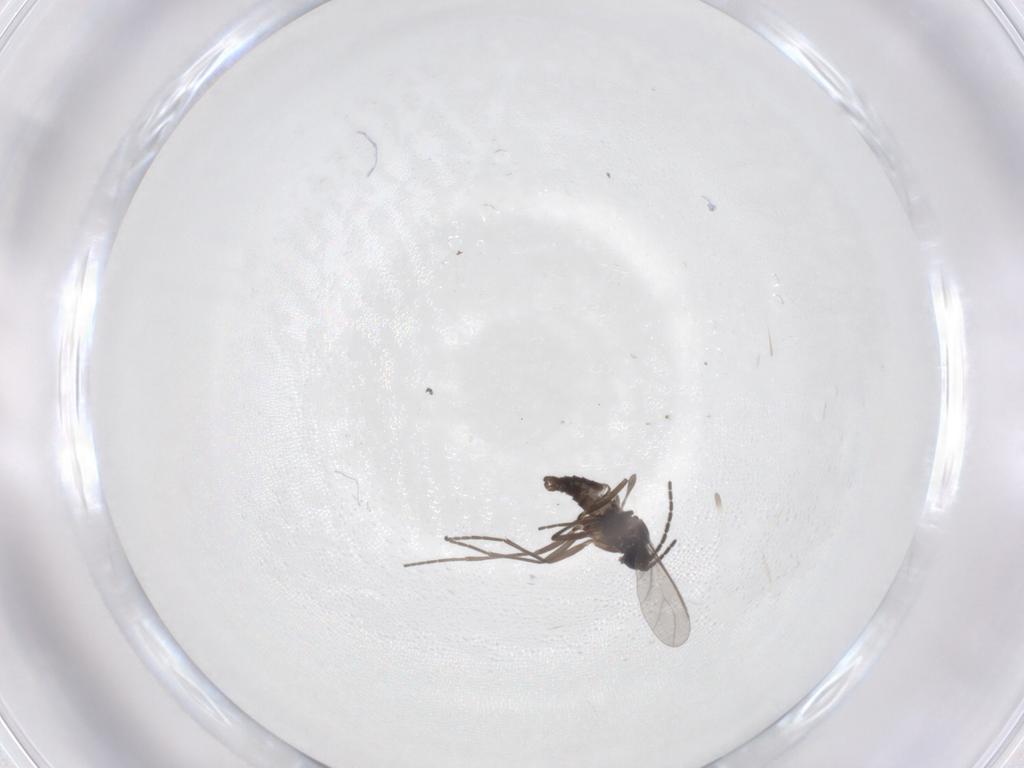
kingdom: Animalia
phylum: Arthropoda
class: Insecta
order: Diptera
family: Sciaridae
